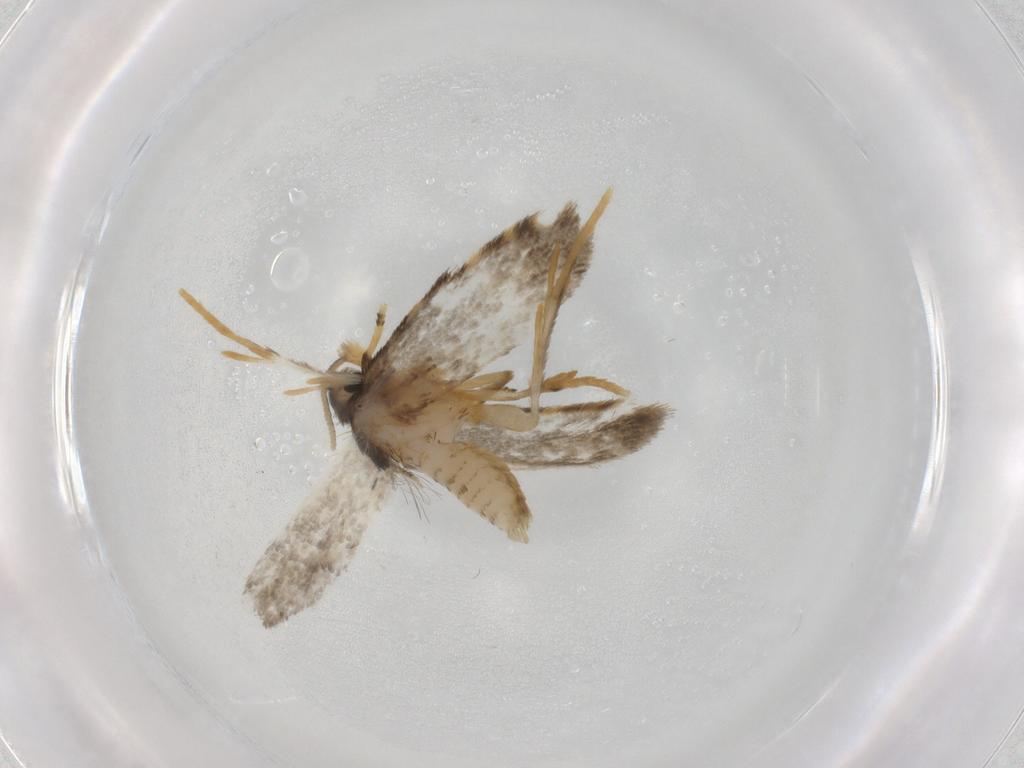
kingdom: Animalia
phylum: Arthropoda
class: Insecta
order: Lepidoptera
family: Psychidae
